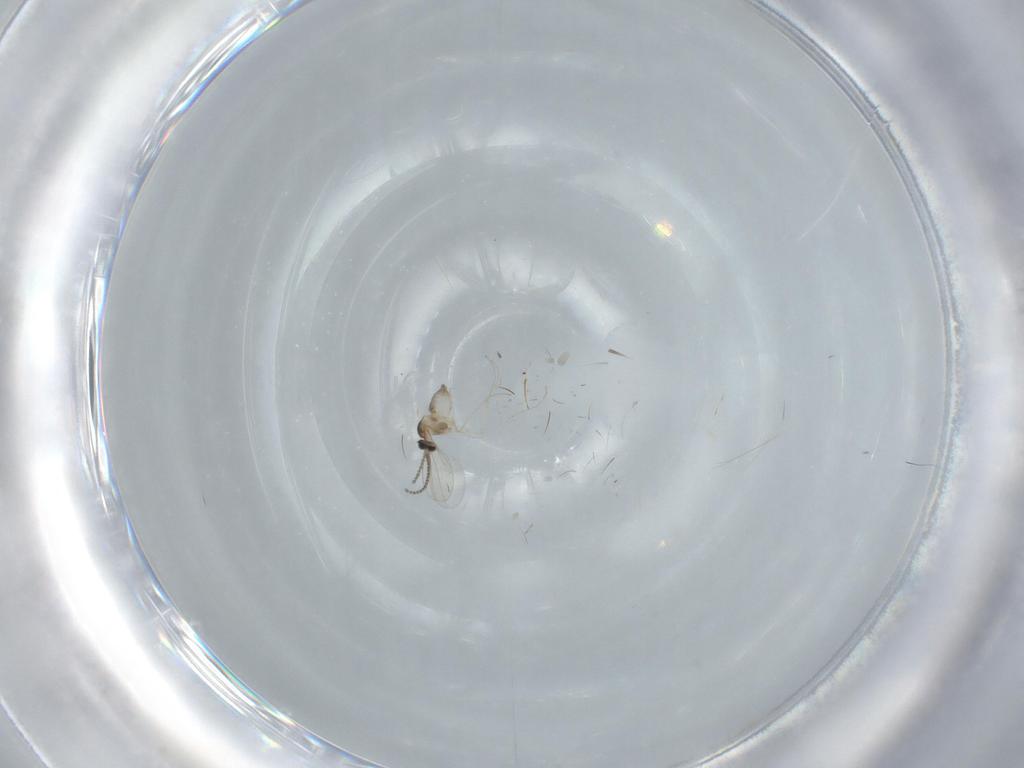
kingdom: Animalia
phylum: Arthropoda
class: Insecta
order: Diptera
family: Cecidomyiidae
